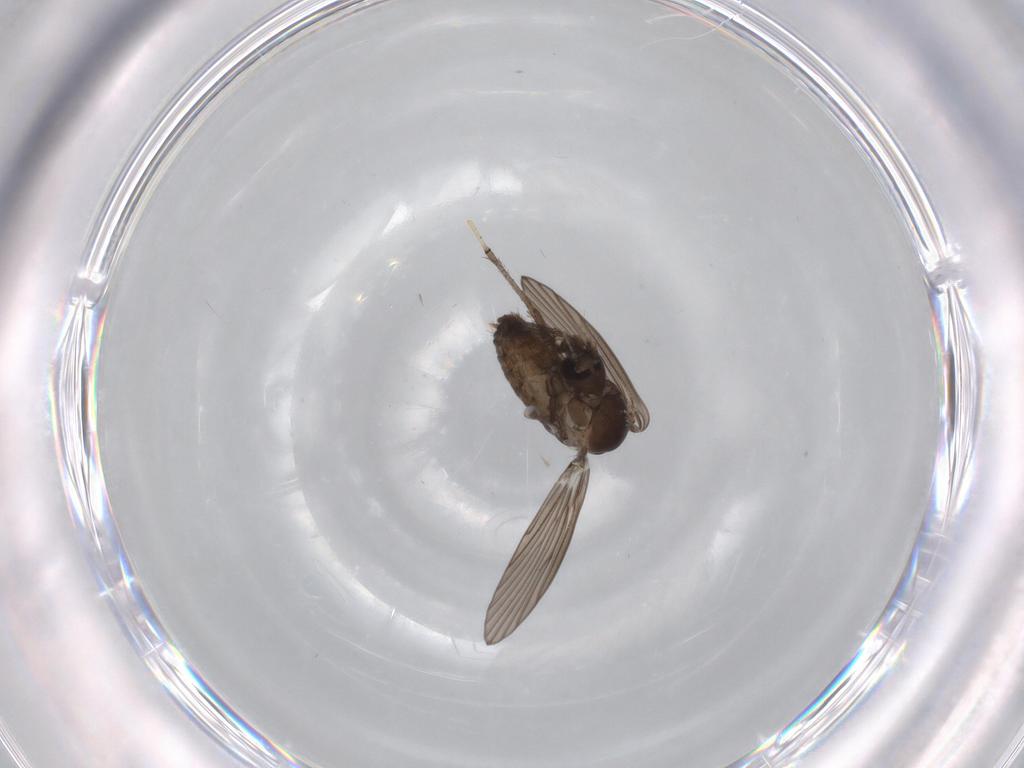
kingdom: Animalia
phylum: Arthropoda
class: Insecta
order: Diptera
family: Psychodidae
